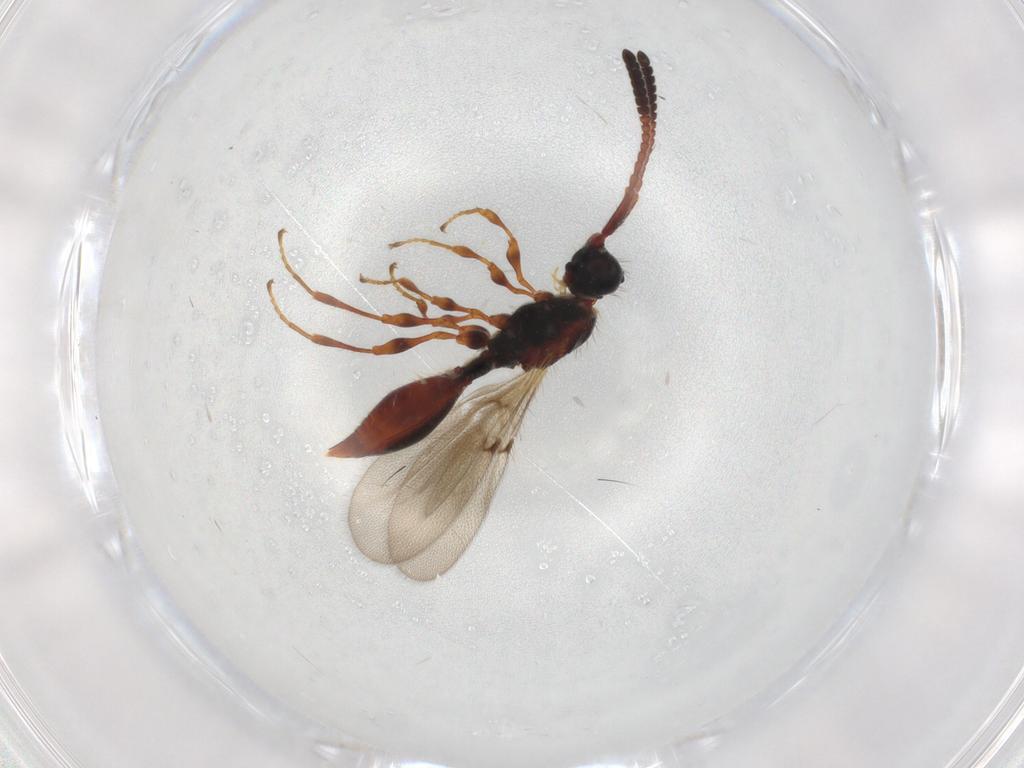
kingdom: Animalia
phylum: Arthropoda
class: Insecta
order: Hymenoptera
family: Diapriidae
